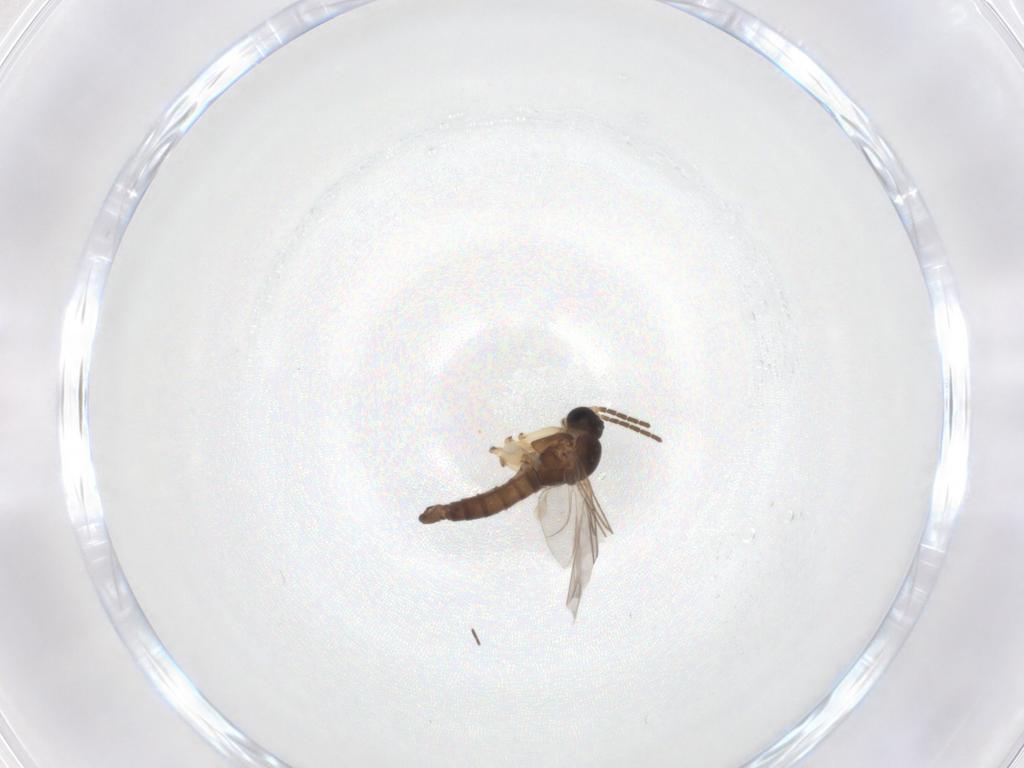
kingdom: Animalia
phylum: Arthropoda
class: Insecta
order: Diptera
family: Sciaridae
